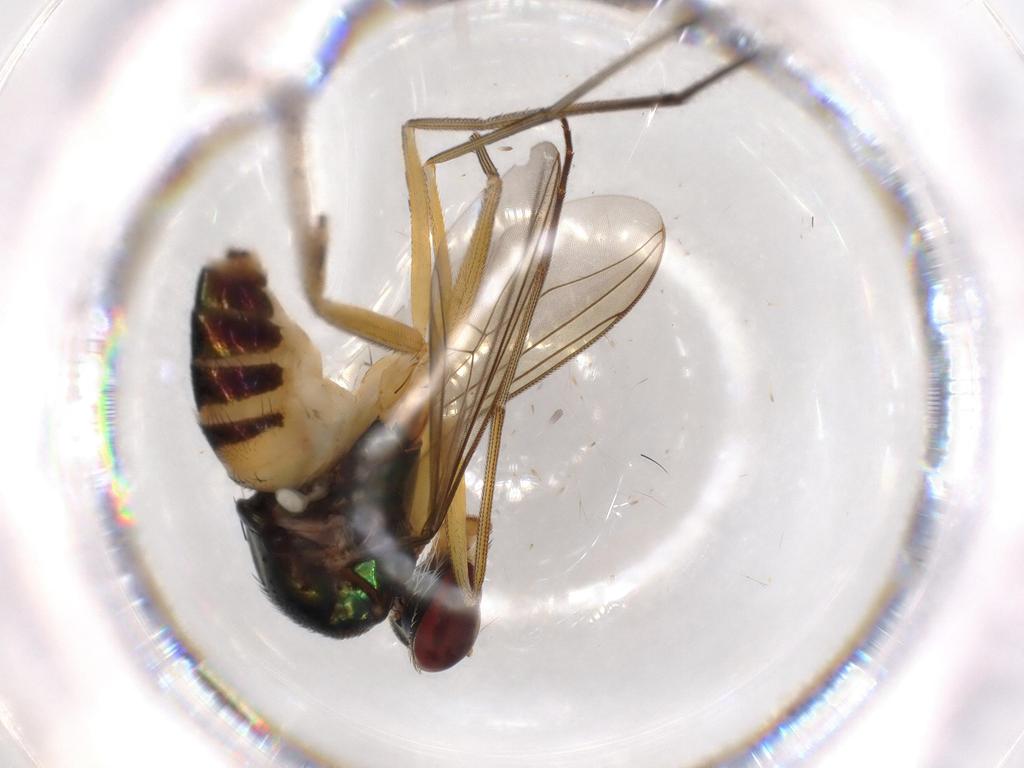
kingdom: Animalia
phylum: Arthropoda
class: Insecta
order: Diptera
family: Dolichopodidae
